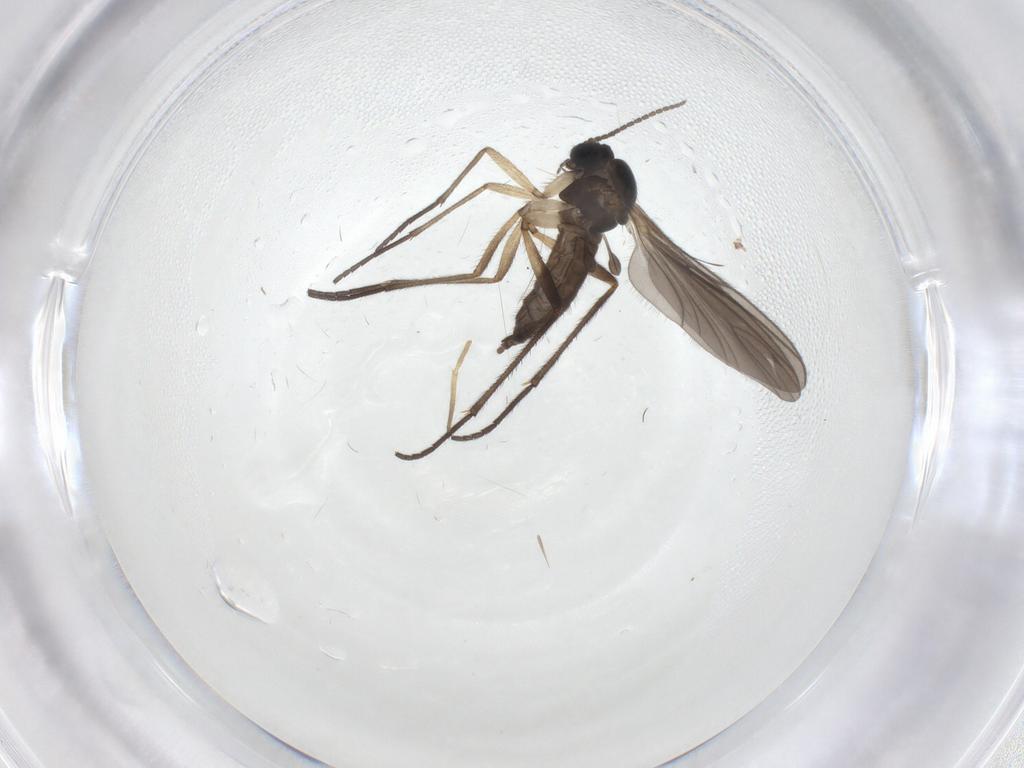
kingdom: Animalia
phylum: Arthropoda
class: Insecta
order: Diptera
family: Sciaridae
